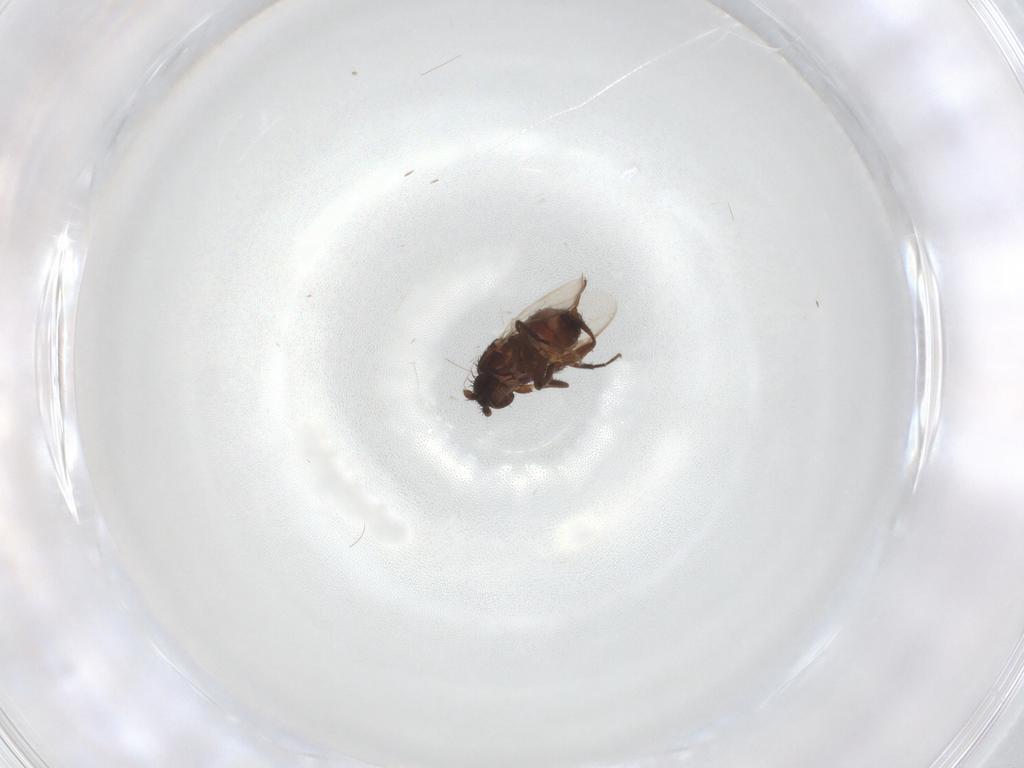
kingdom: Animalia
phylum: Arthropoda
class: Insecta
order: Diptera
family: Sphaeroceridae
